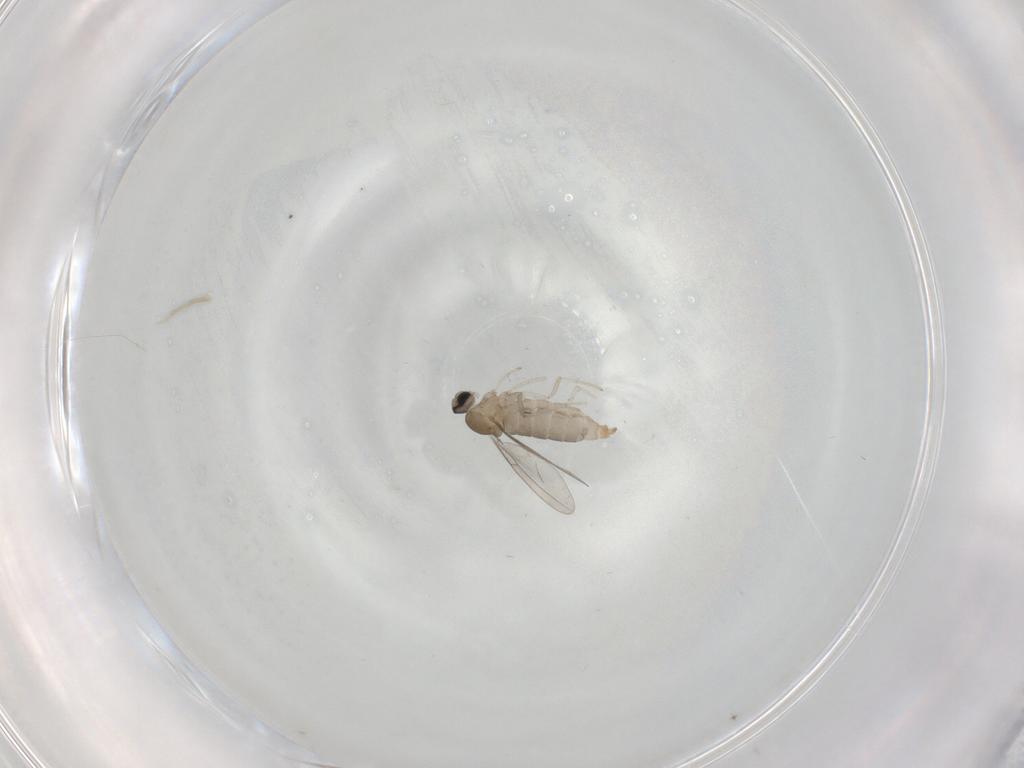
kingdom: Animalia
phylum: Arthropoda
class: Insecta
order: Diptera
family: Cecidomyiidae
